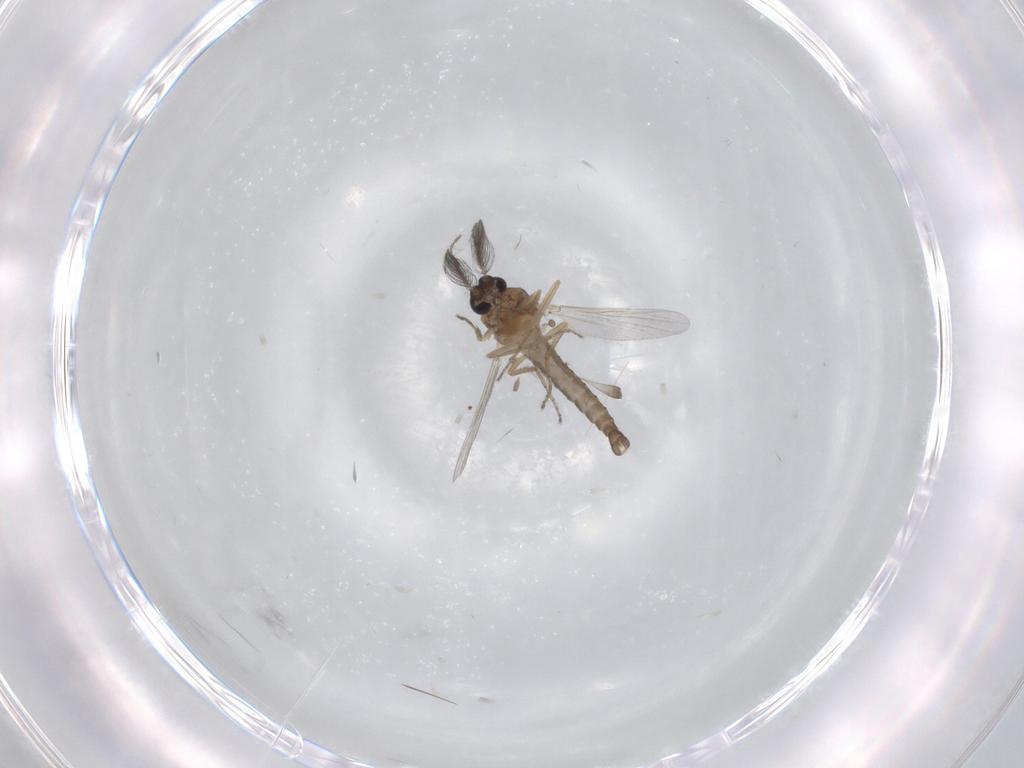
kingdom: Animalia
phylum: Arthropoda
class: Insecta
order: Diptera
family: Ceratopogonidae
